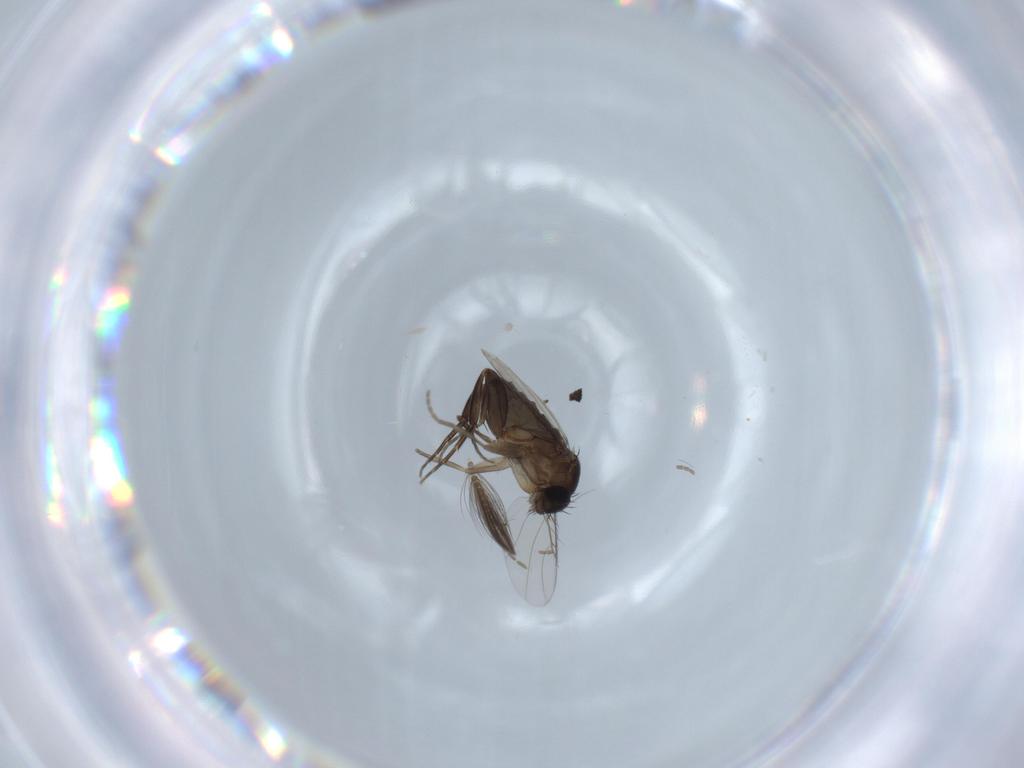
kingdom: Animalia
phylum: Arthropoda
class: Insecta
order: Diptera
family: Phoridae
